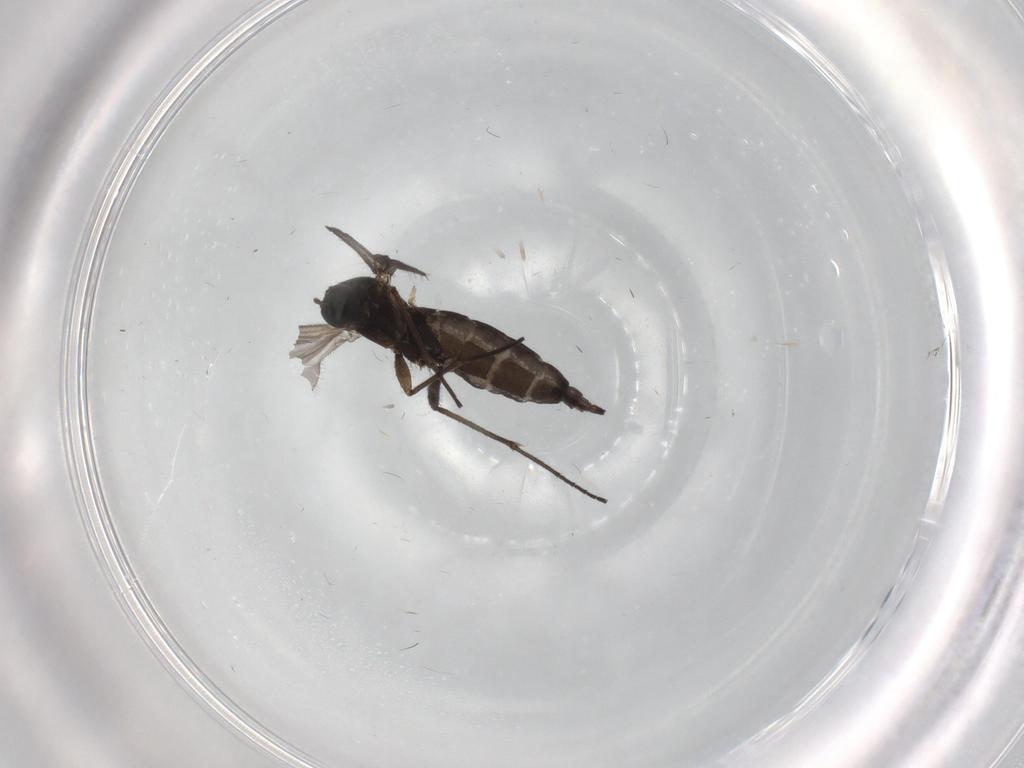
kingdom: Animalia
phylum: Arthropoda
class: Insecta
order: Diptera
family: Sciaridae
